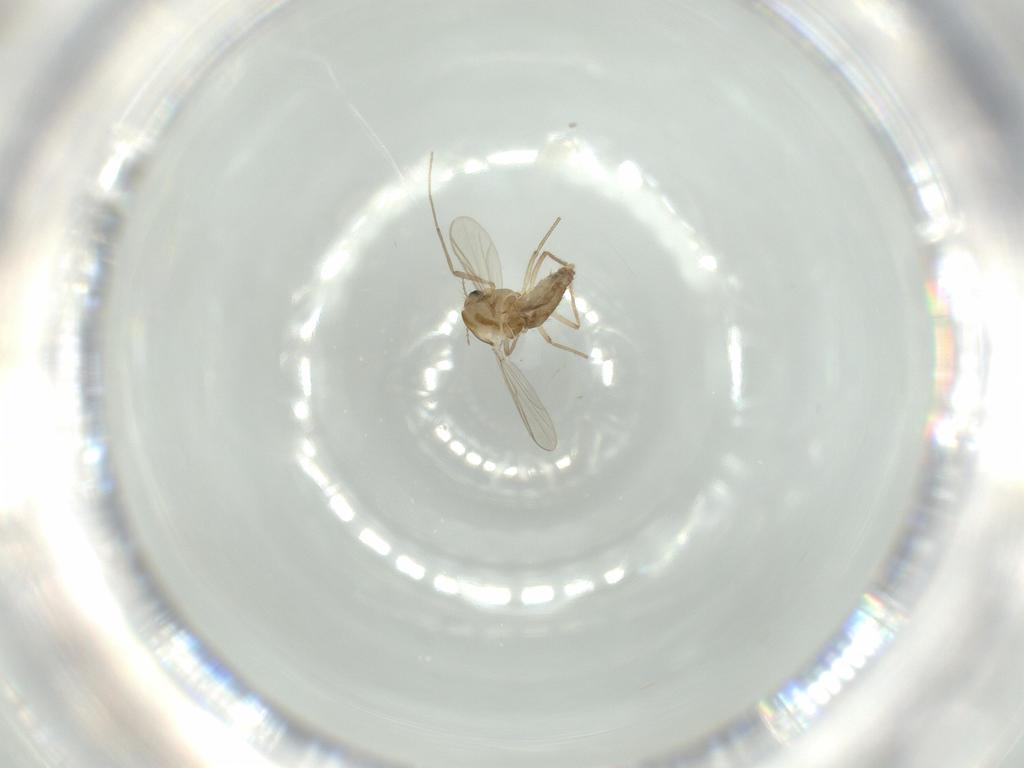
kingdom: Animalia
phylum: Arthropoda
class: Insecta
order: Diptera
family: Chironomidae
